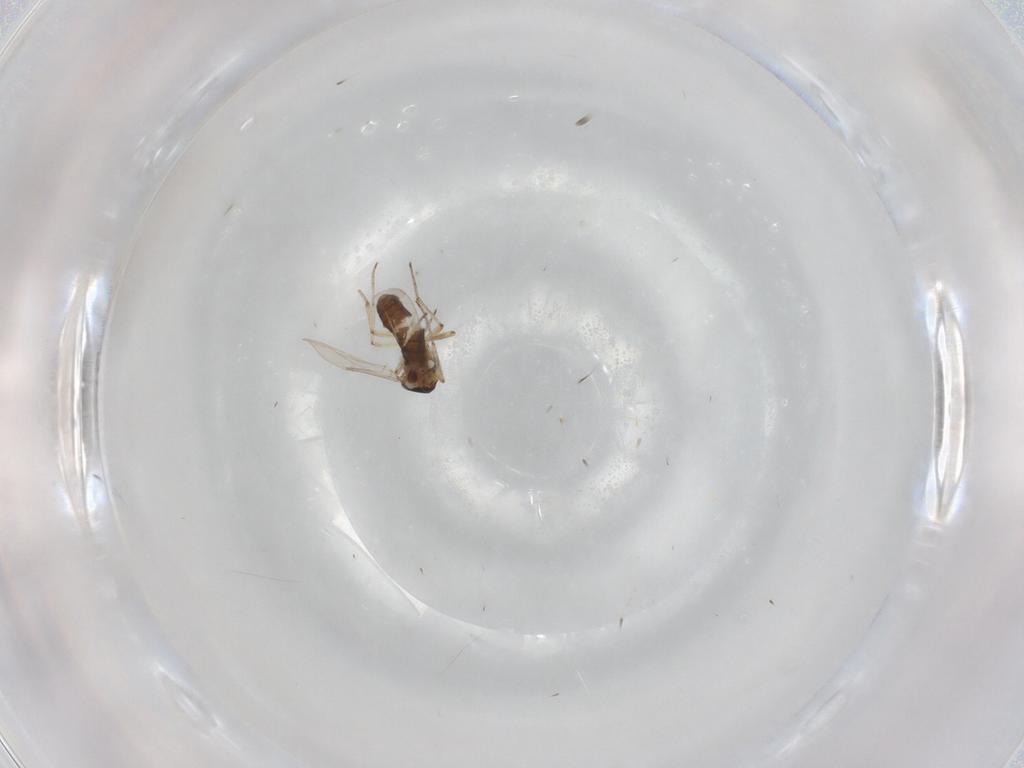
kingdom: Animalia
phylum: Arthropoda
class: Insecta
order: Diptera
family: Ceratopogonidae
